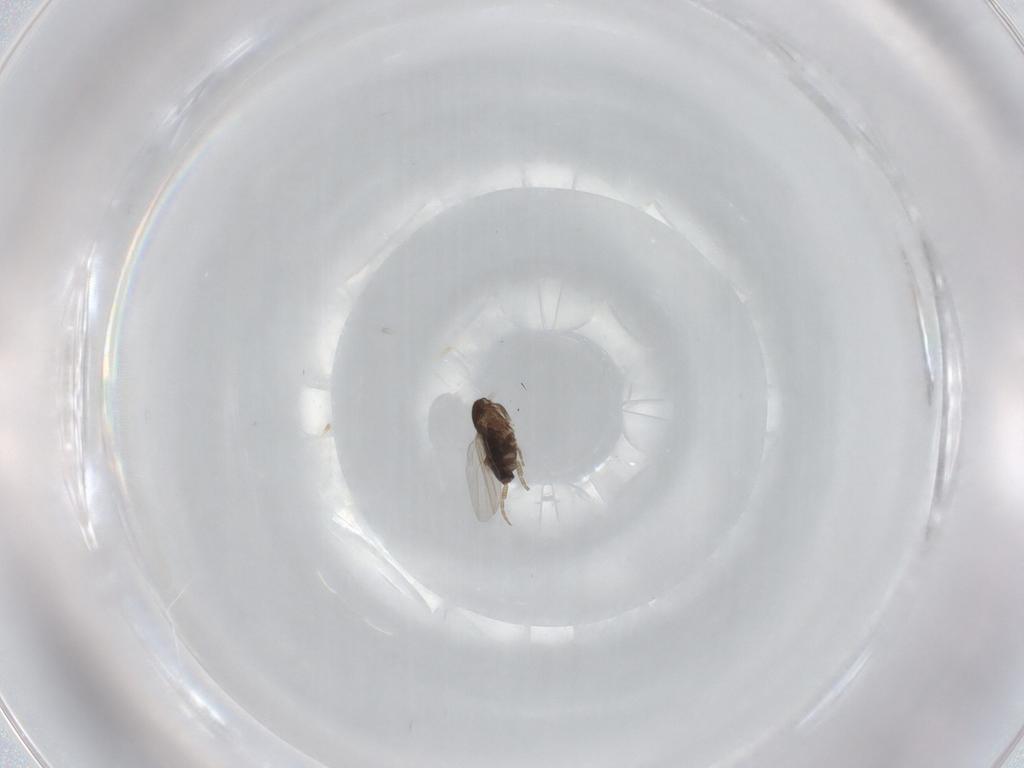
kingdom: Animalia
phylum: Arthropoda
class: Insecta
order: Diptera
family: Phoridae
